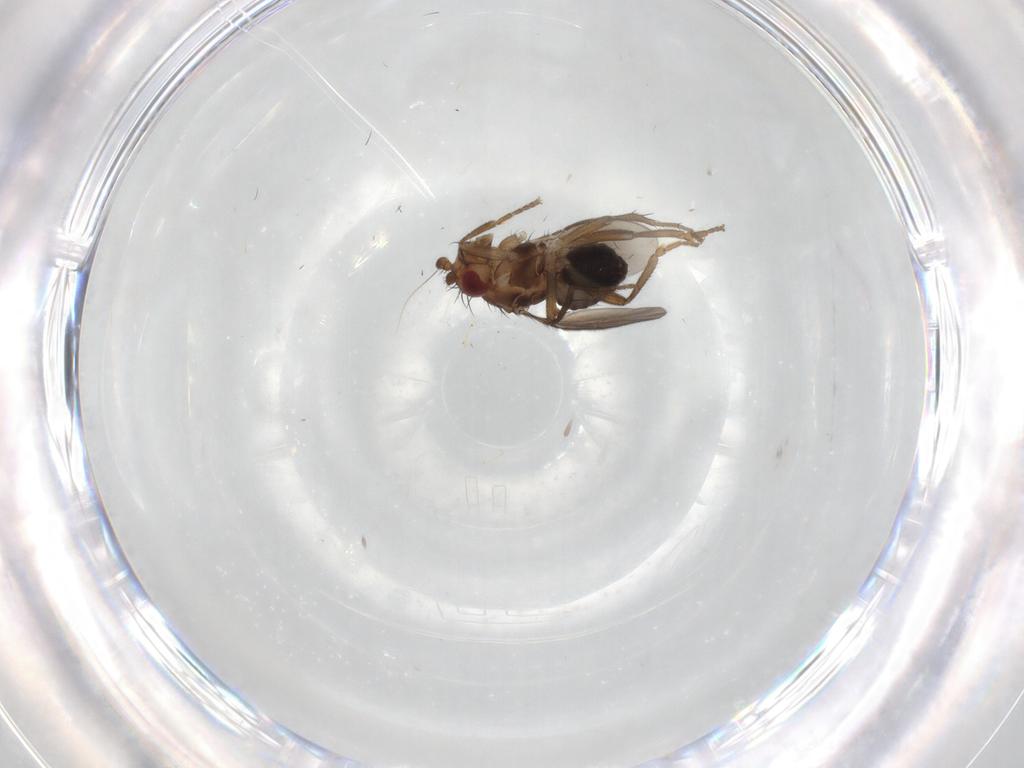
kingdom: Animalia
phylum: Arthropoda
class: Insecta
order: Diptera
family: Sphaeroceridae
